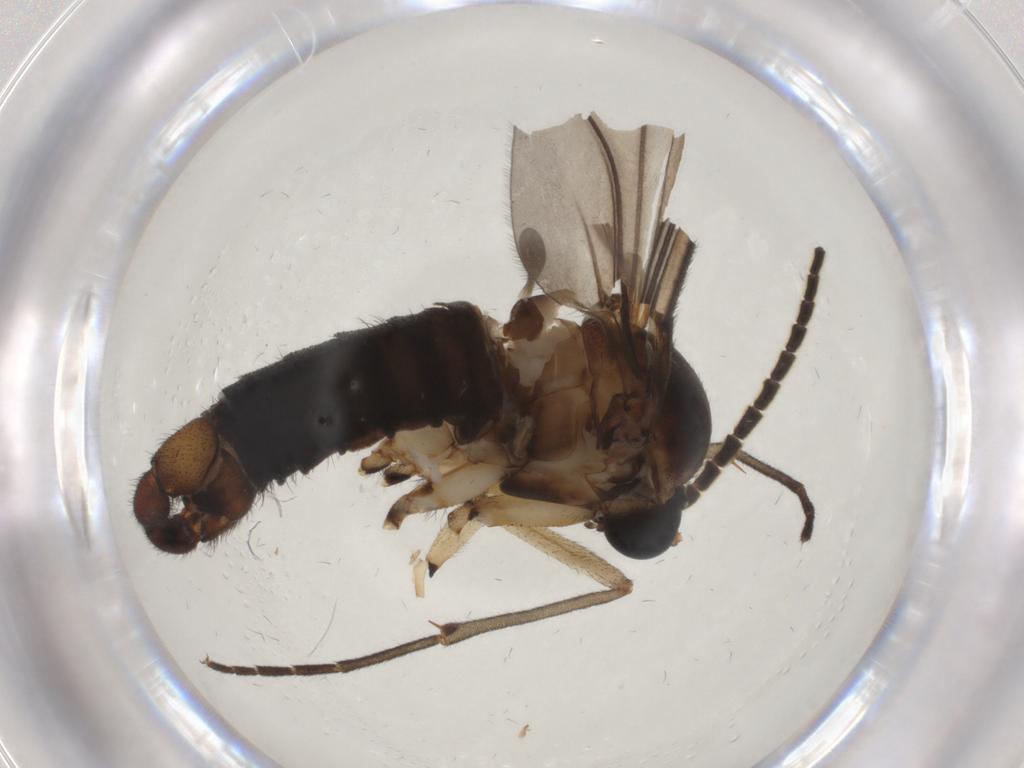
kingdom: Animalia
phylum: Arthropoda
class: Insecta
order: Diptera
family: Sciaridae
